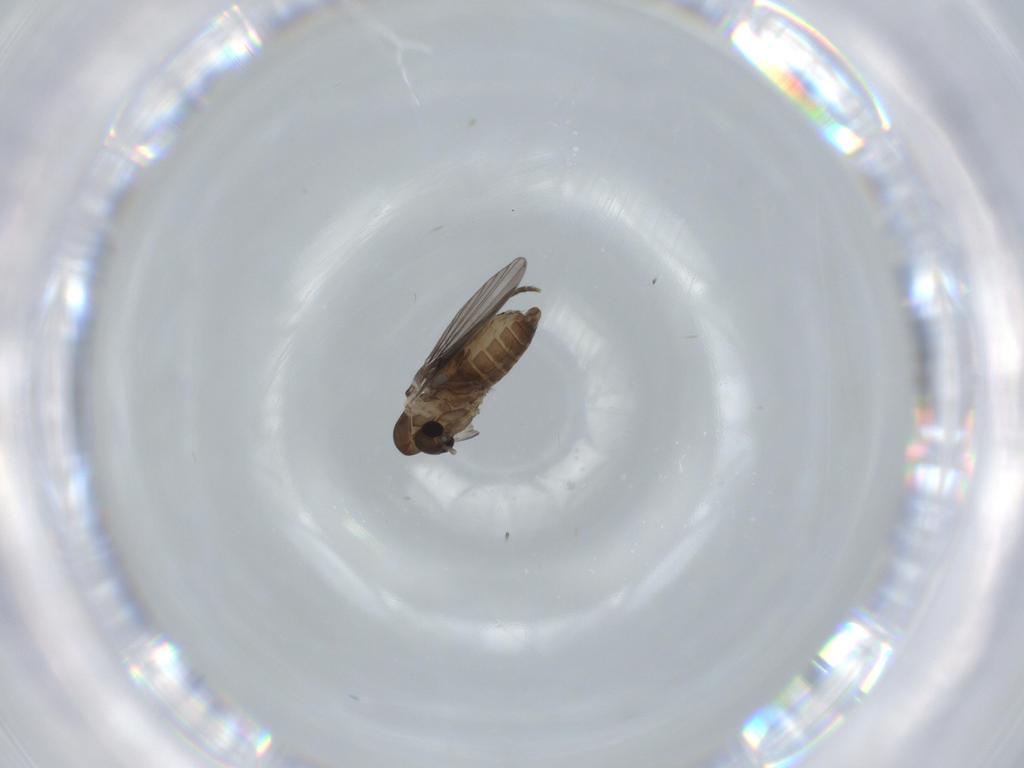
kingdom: Animalia
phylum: Arthropoda
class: Insecta
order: Diptera
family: Psychodidae
